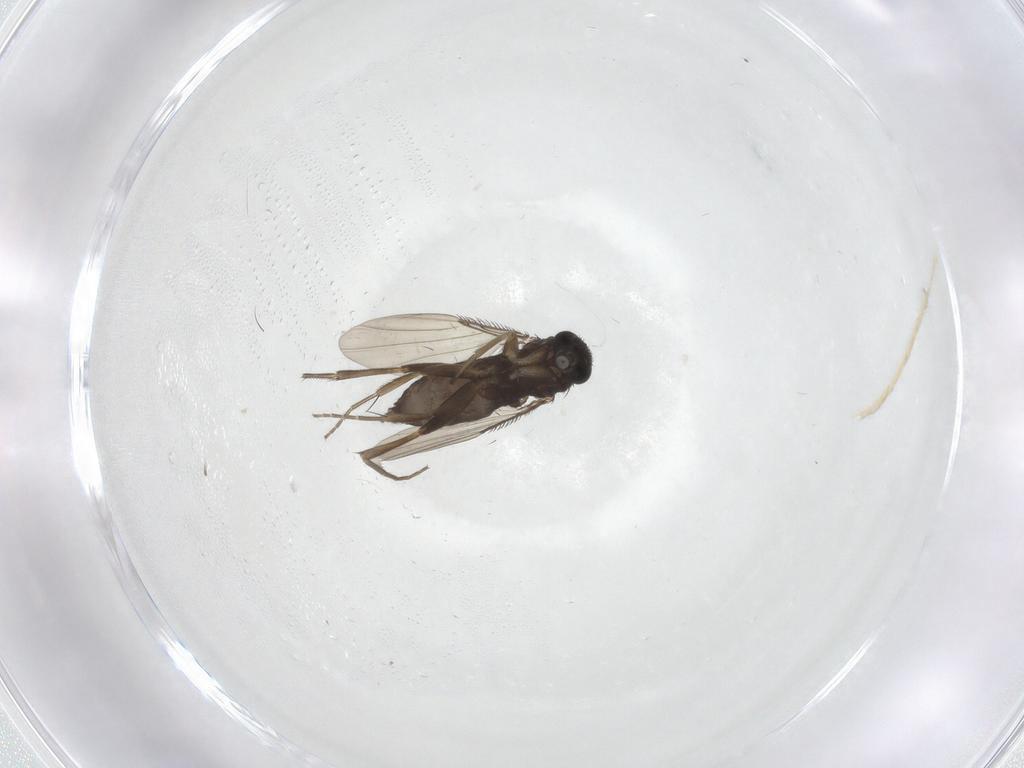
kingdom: Animalia
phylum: Arthropoda
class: Insecta
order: Diptera
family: Phoridae
